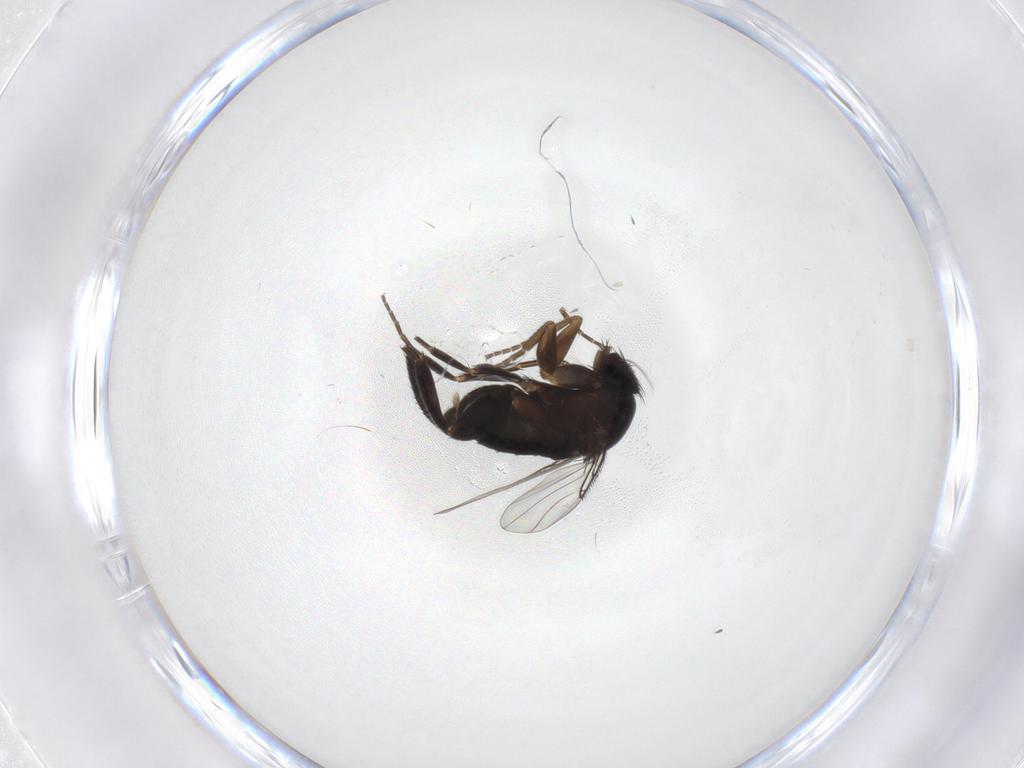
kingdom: Animalia
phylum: Arthropoda
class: Insecta
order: Diptera
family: Phoridae
